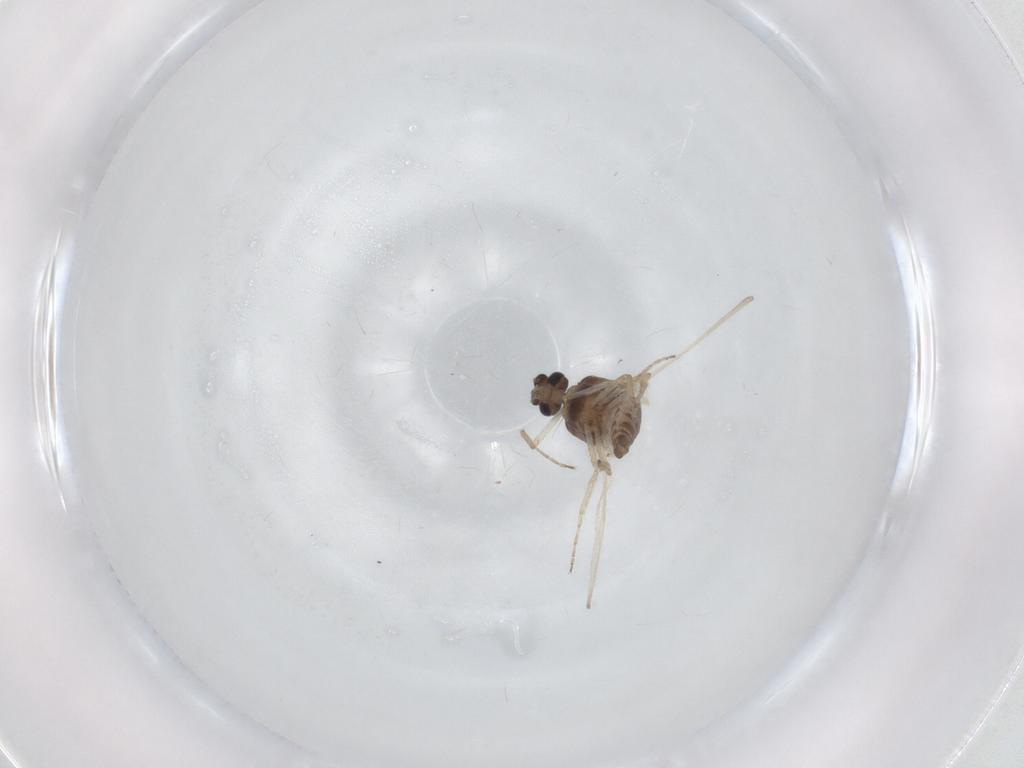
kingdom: Animalia
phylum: Arthropoda
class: Insecta
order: Diptera
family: Ceratopogonidae
